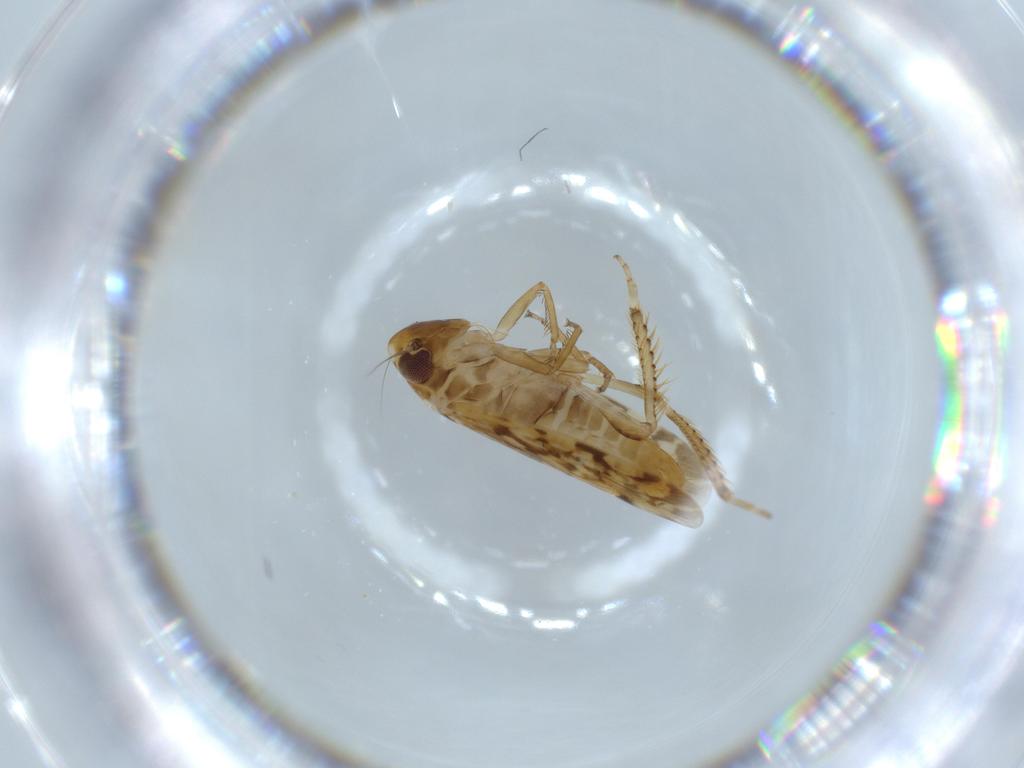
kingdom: Animalia
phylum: Arthropoda
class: Insecta
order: Hemiptera
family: Cicadellidae
